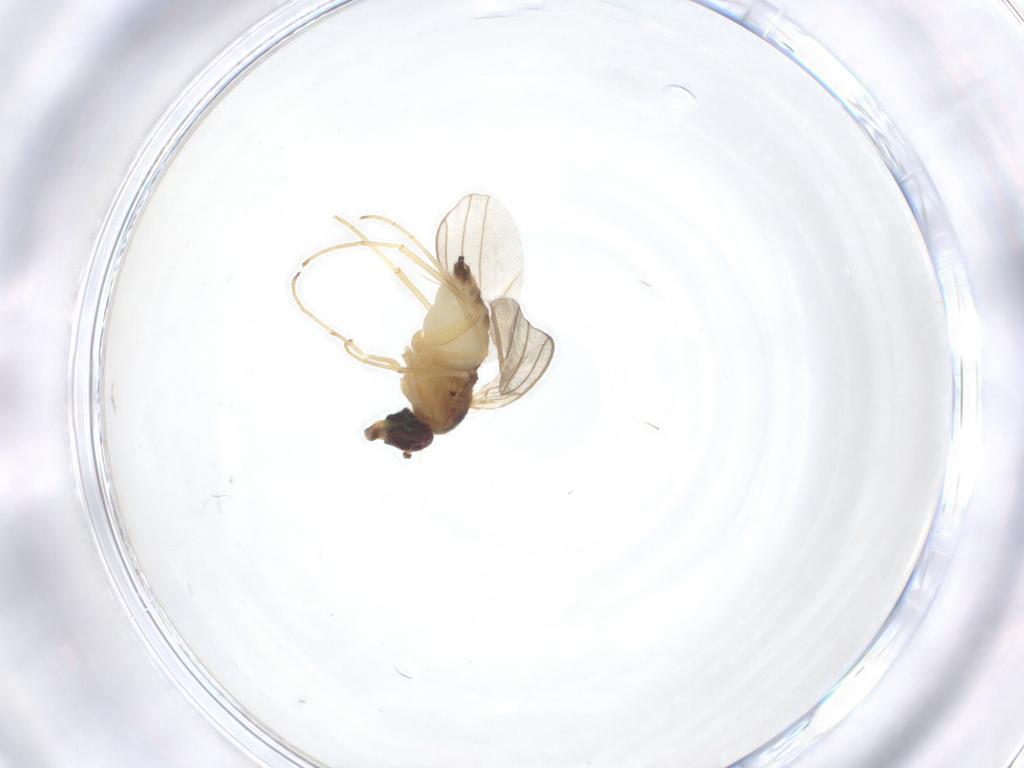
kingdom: Animalia
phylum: Arthropoda
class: Insecta
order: Diptera
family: Dolichopodidae
